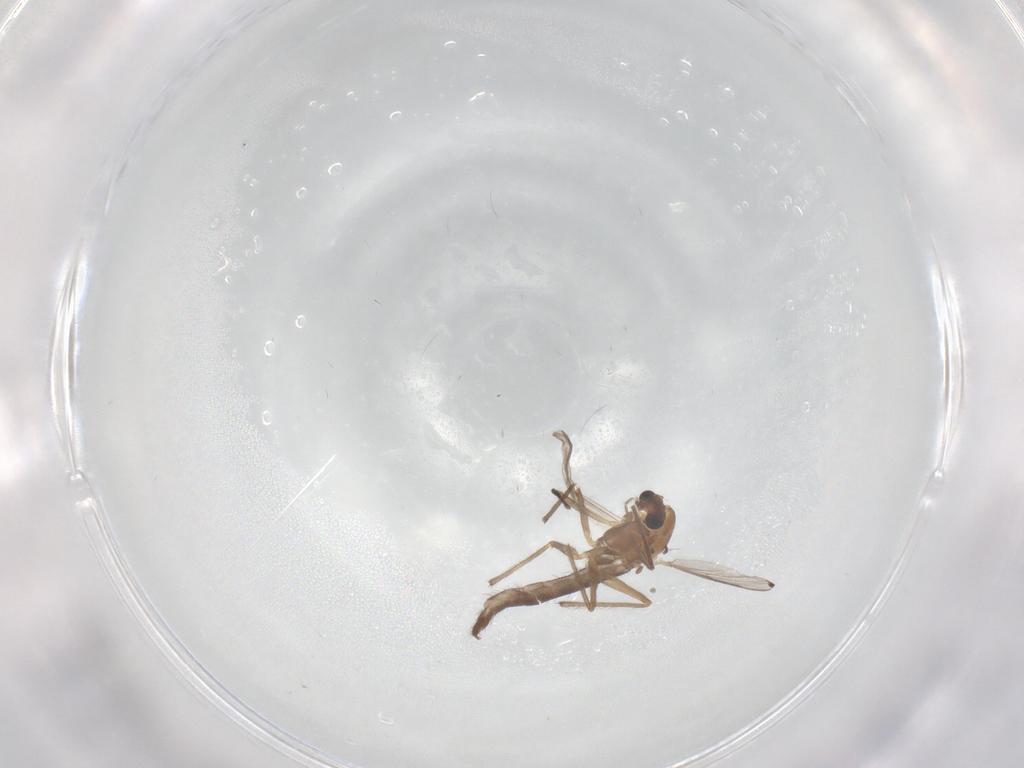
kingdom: Animalia
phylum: Arthropoda
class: Insecta
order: Diptera
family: Chironomidae
